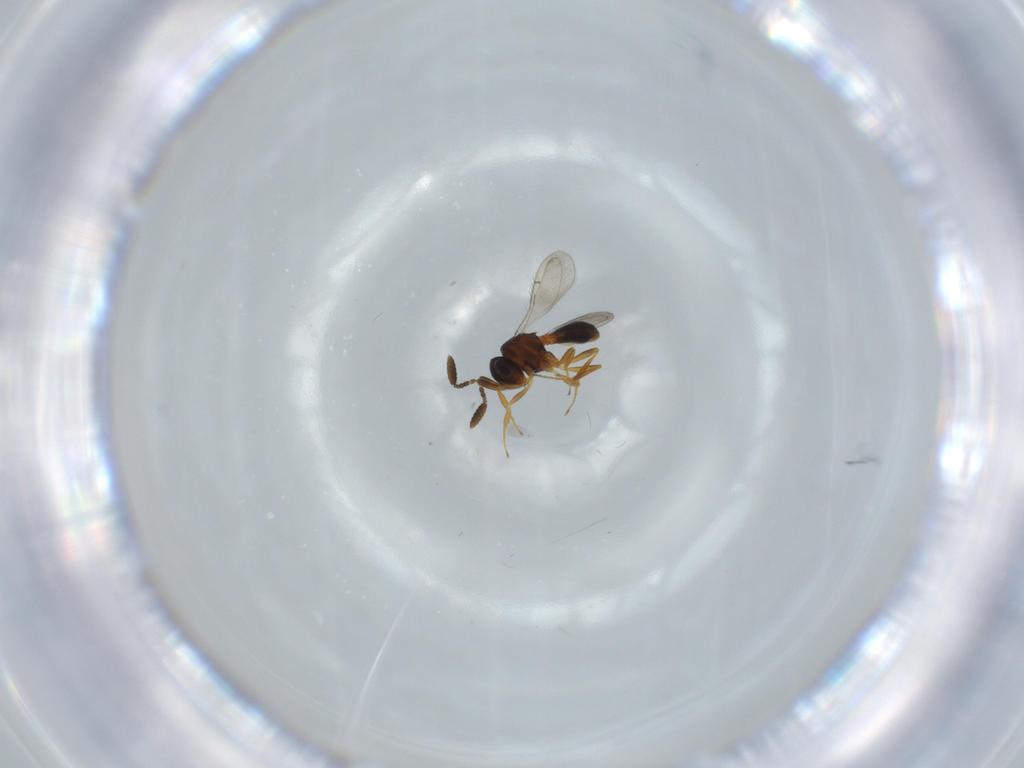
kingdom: Animalia
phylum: Arthropoda
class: Insecta
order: Hymenoptera
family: Scelionidae
